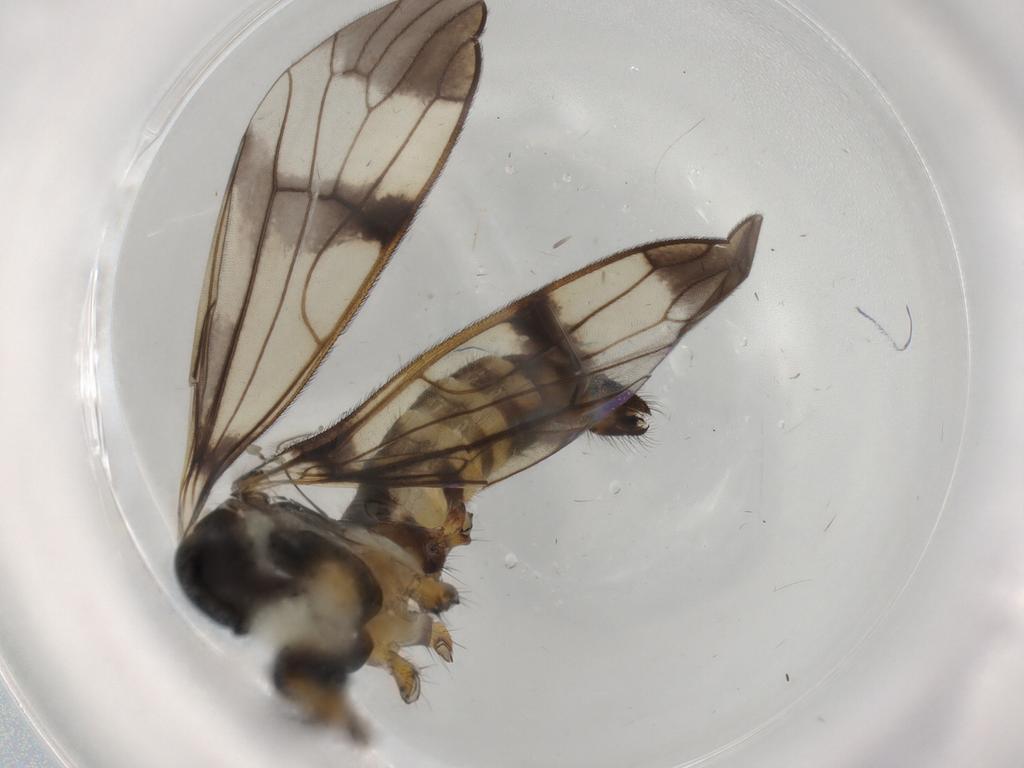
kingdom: Animalia
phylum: Arthropoda
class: Insecta
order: Diptera
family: Limoniidae
